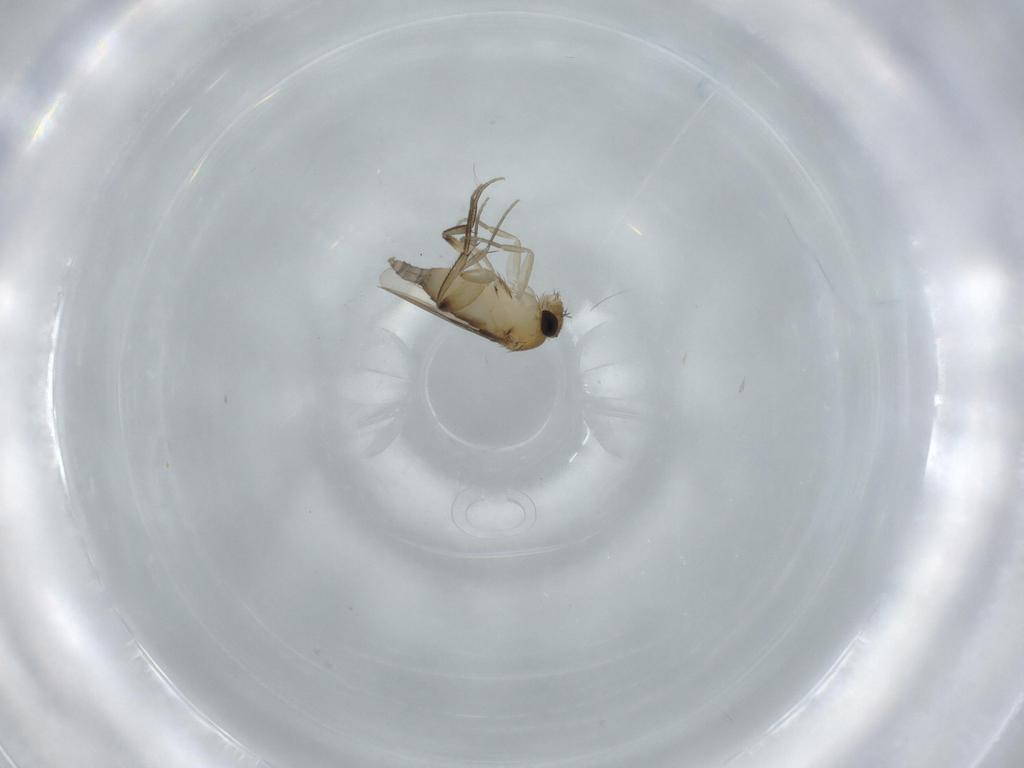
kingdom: Animalia
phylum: Arthropoda
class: Insecta
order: Diptera
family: Phoridae
